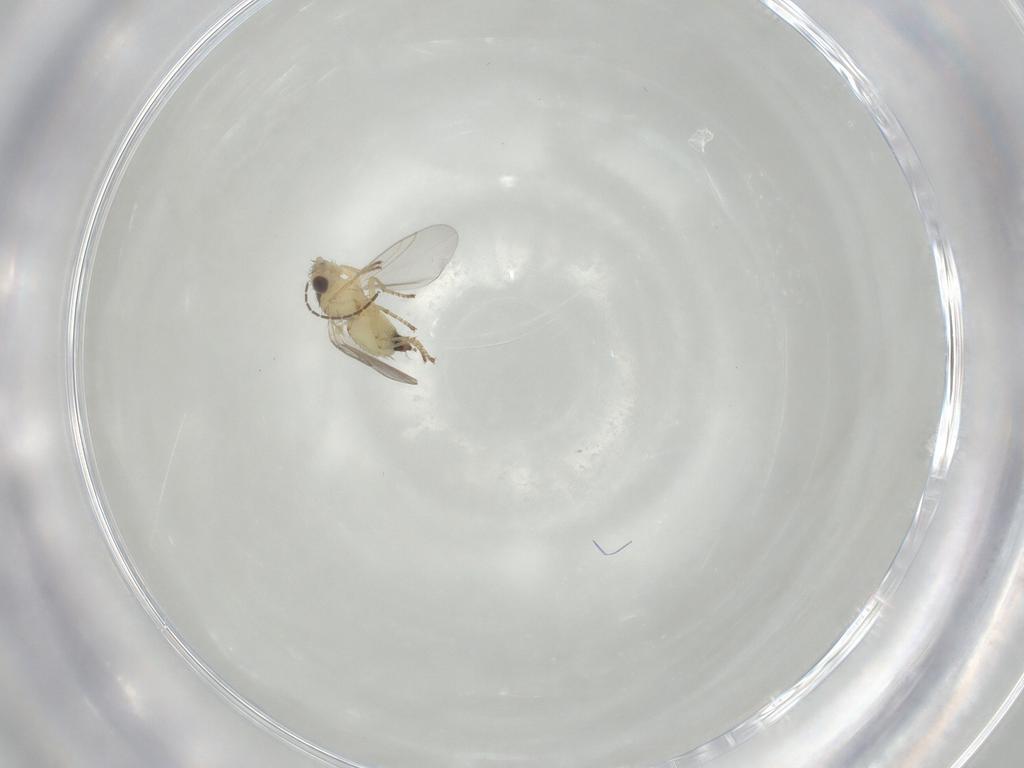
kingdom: Animalia
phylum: Arthropoda
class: Insecta
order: Diptera
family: Agromyzidae
